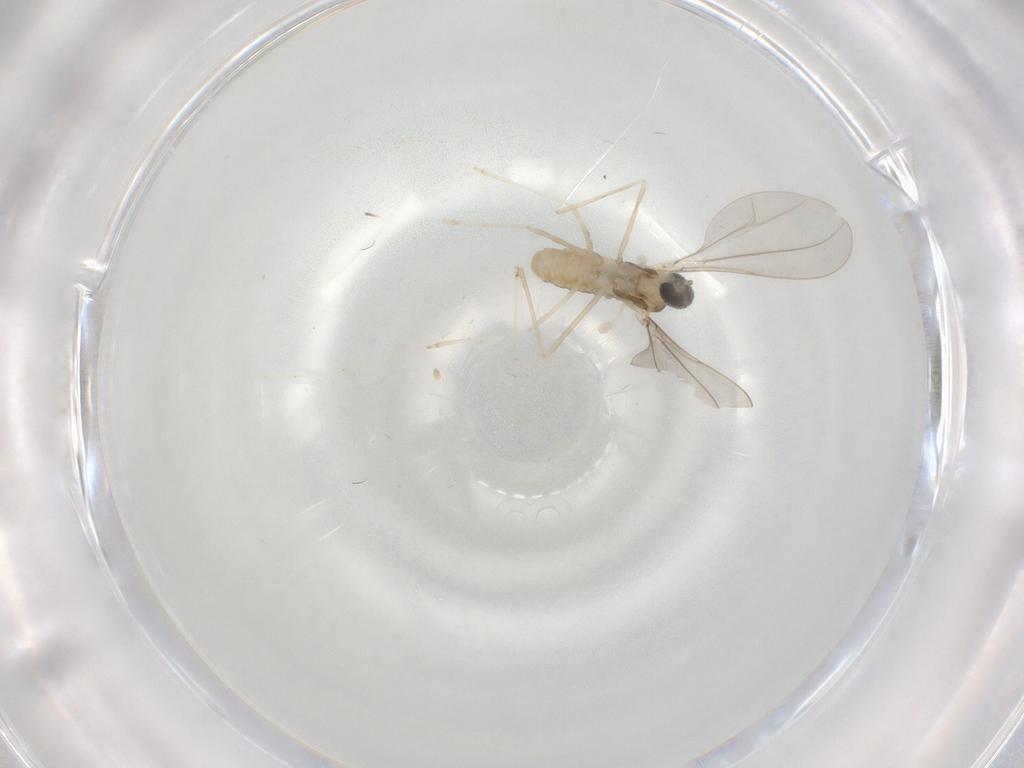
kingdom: Animalia
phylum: Arthropoda
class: Insecta
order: Diptera
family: Cecidomyiidae
